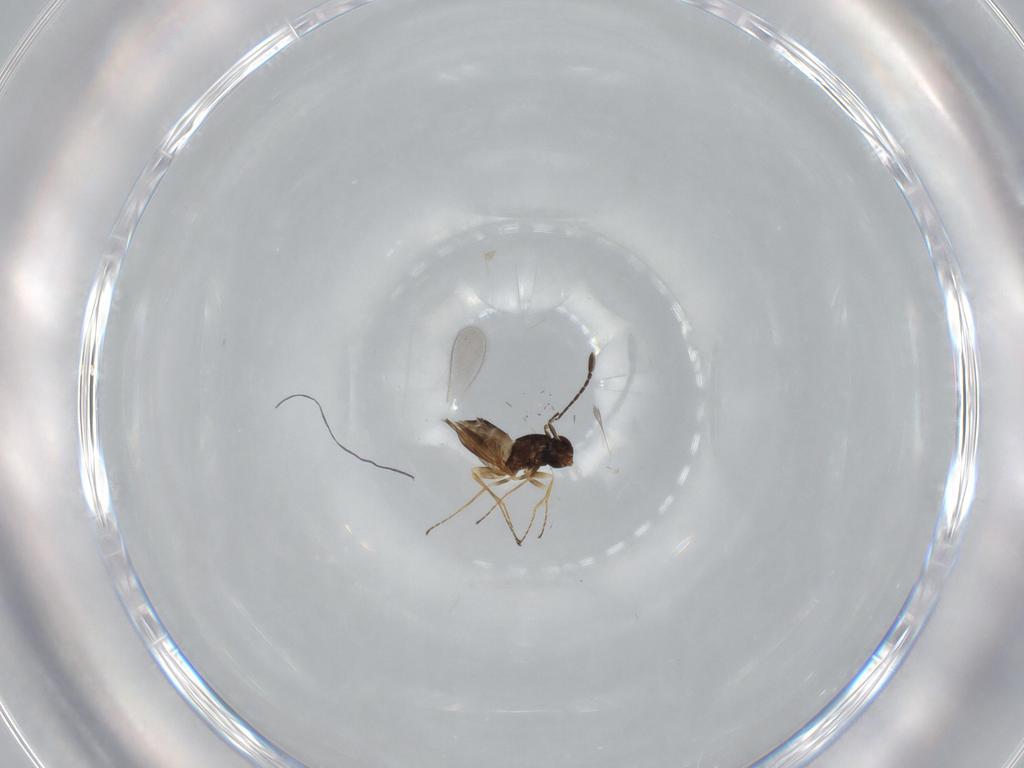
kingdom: Animalia
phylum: Arthropoda
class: Insecta
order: Hymenoptera
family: Mymaridae
